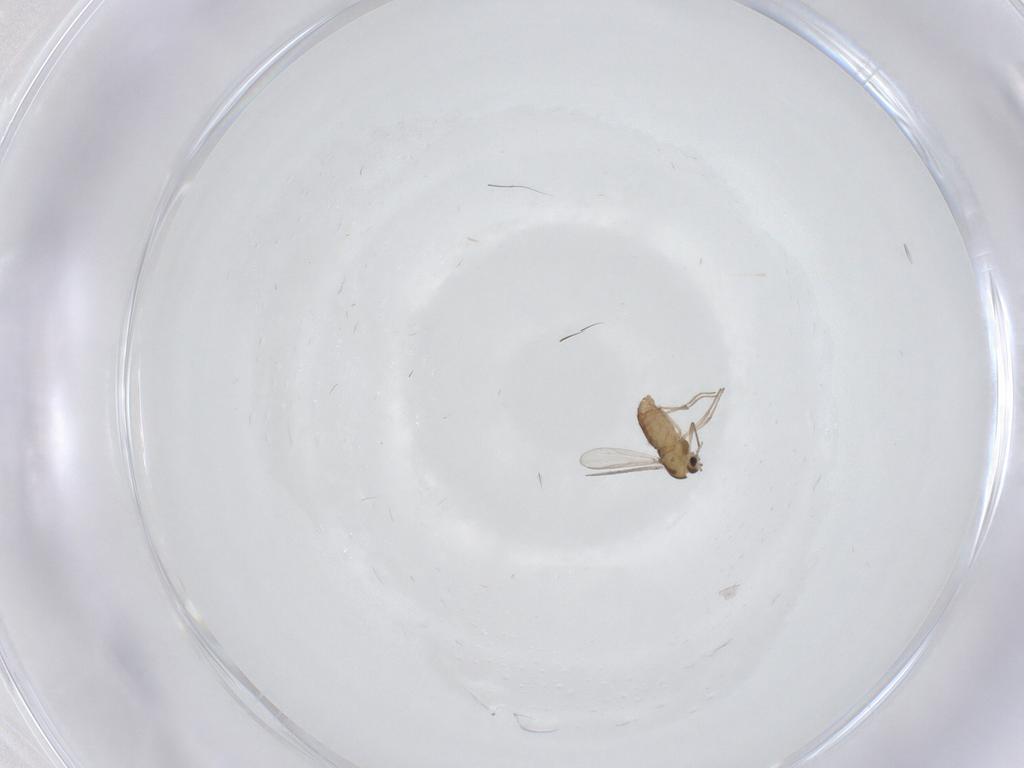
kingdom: Animalia
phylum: Arthropoda
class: Insecta
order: Diptera
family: Chironomidae
